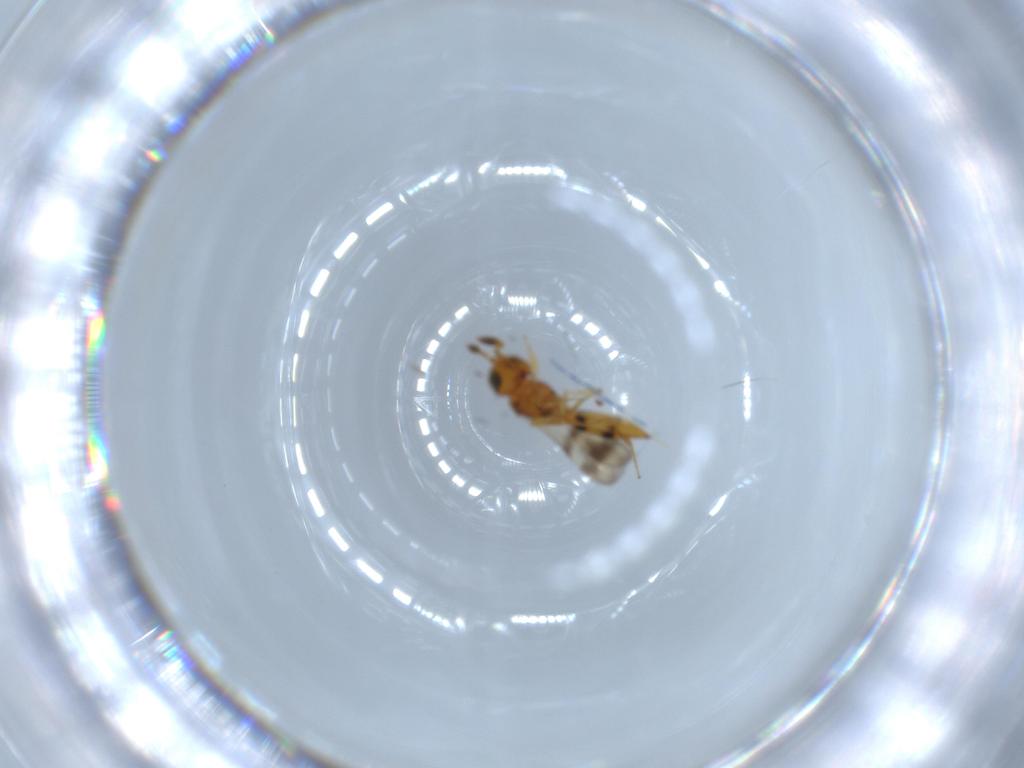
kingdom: Animalia
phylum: Arthropoda
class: Insecta
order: Hymenoptera
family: Scelionidae
